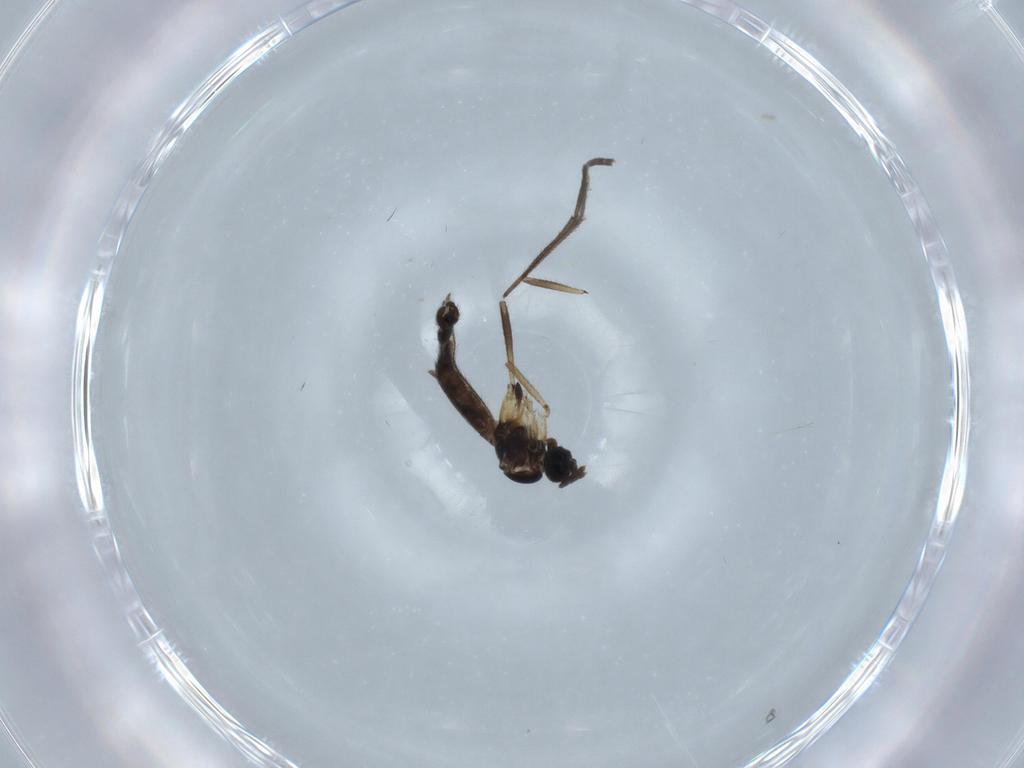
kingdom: Animalia
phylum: Arthropoda
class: Insecta
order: Diptera
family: Sciaridae
